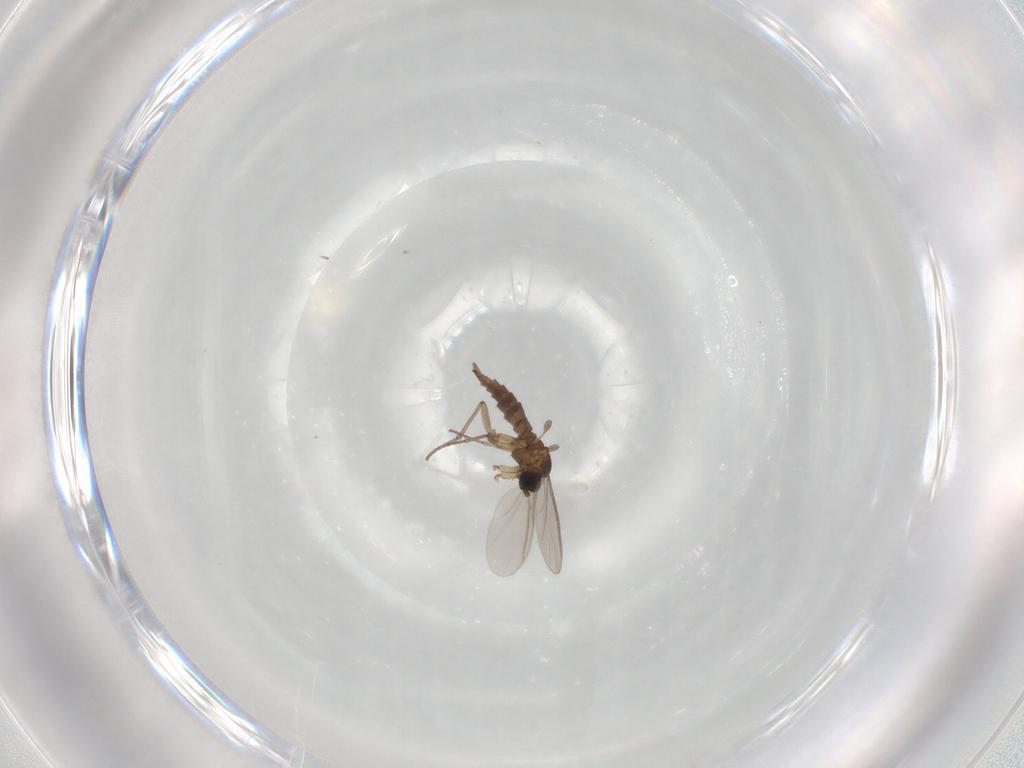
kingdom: Animalia
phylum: Arthropoda
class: Insecta
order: Diptera
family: Sciaridae
